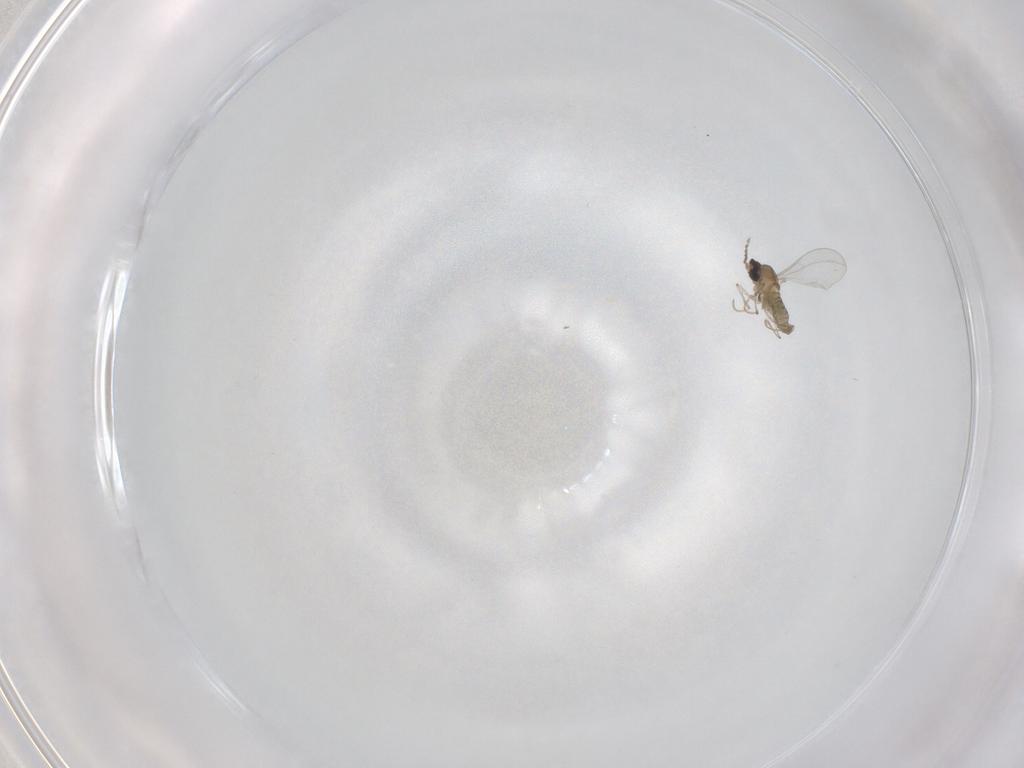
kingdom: Animalia
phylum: Arthropoda
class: Insecta
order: Diptera
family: Cecidomyiidae
